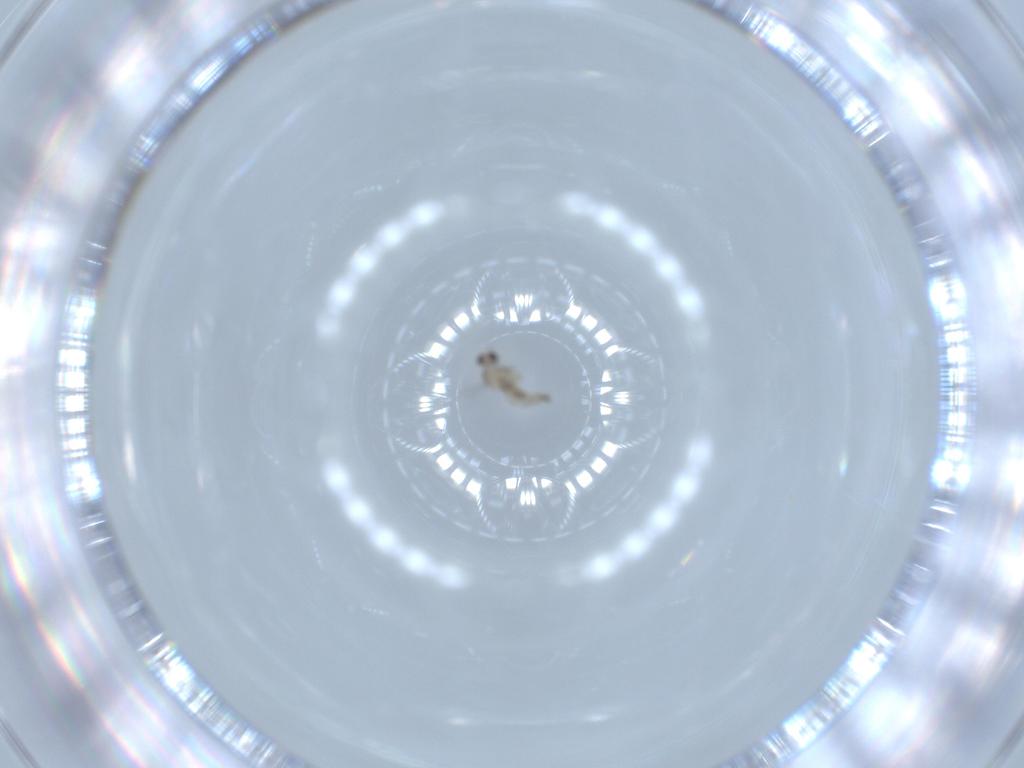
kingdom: Animalia
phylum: Arthropoda
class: Insecta
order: Diptera
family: Cecidomyiidae
